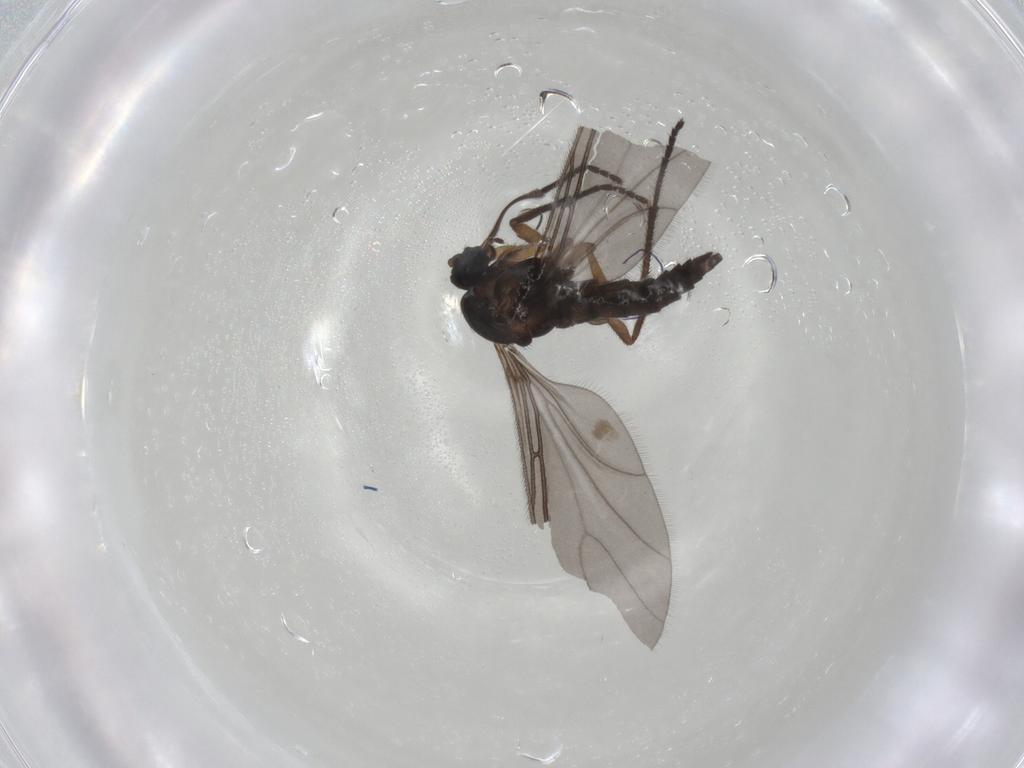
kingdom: Animalia
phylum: Arthropoda
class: Insecta
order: Diptera
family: Sciaridae
